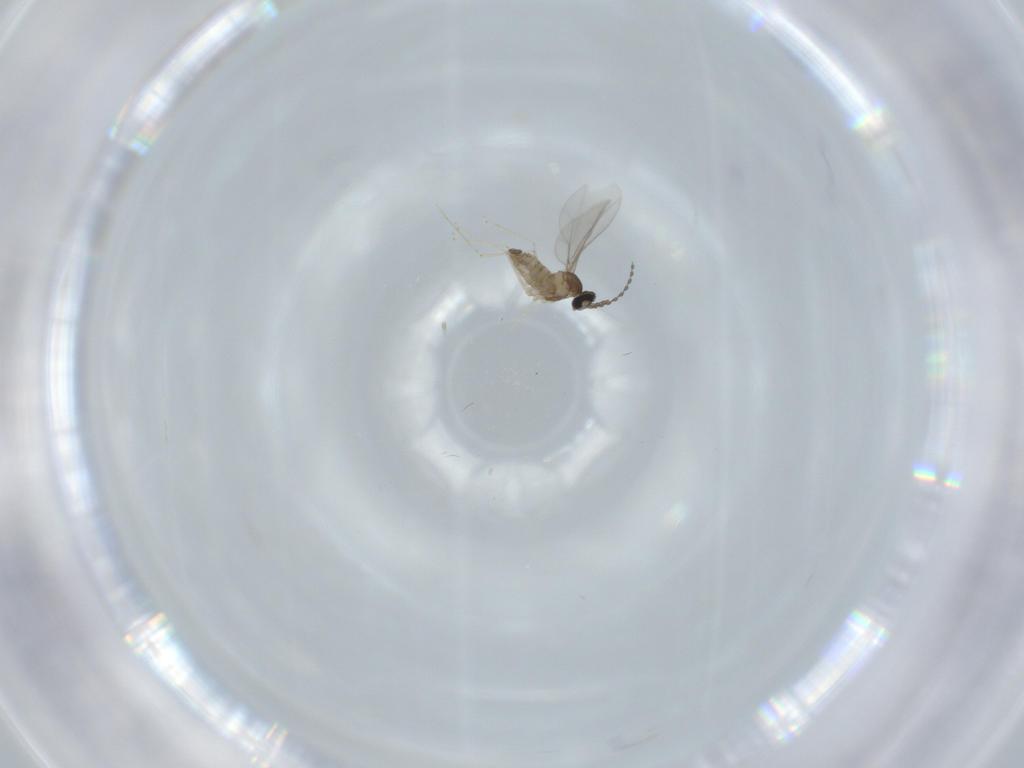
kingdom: Animalia
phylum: Arthropoda
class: Insecta
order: Diptera
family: Cecidomyiidae
